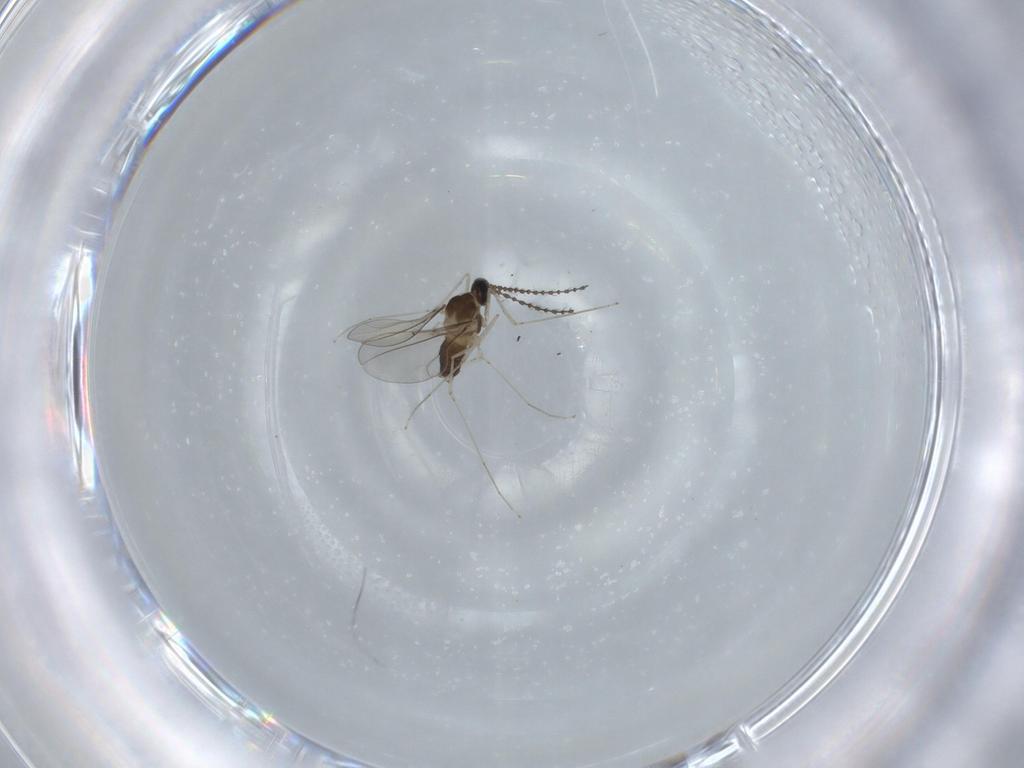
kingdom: Animalia
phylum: Arthropoda
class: Insecta
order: Diptera
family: Cecidomyiidae
